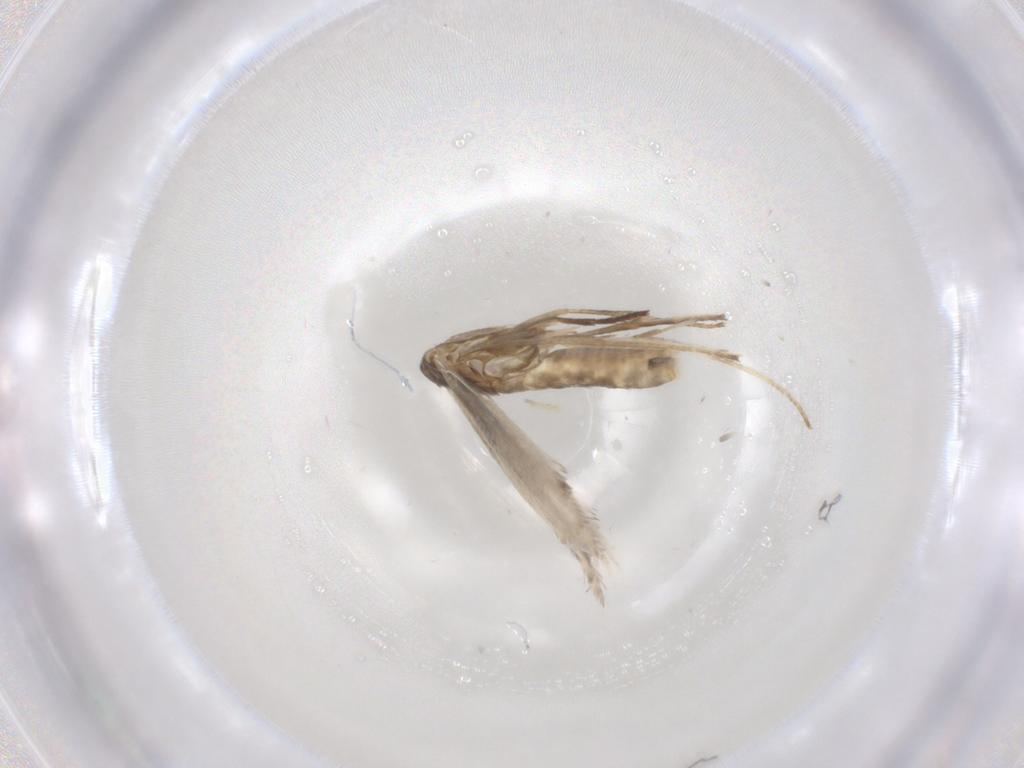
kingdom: Animalia
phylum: Arthropoda
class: Insecta
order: Lepidoptera
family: Gracillariidae
